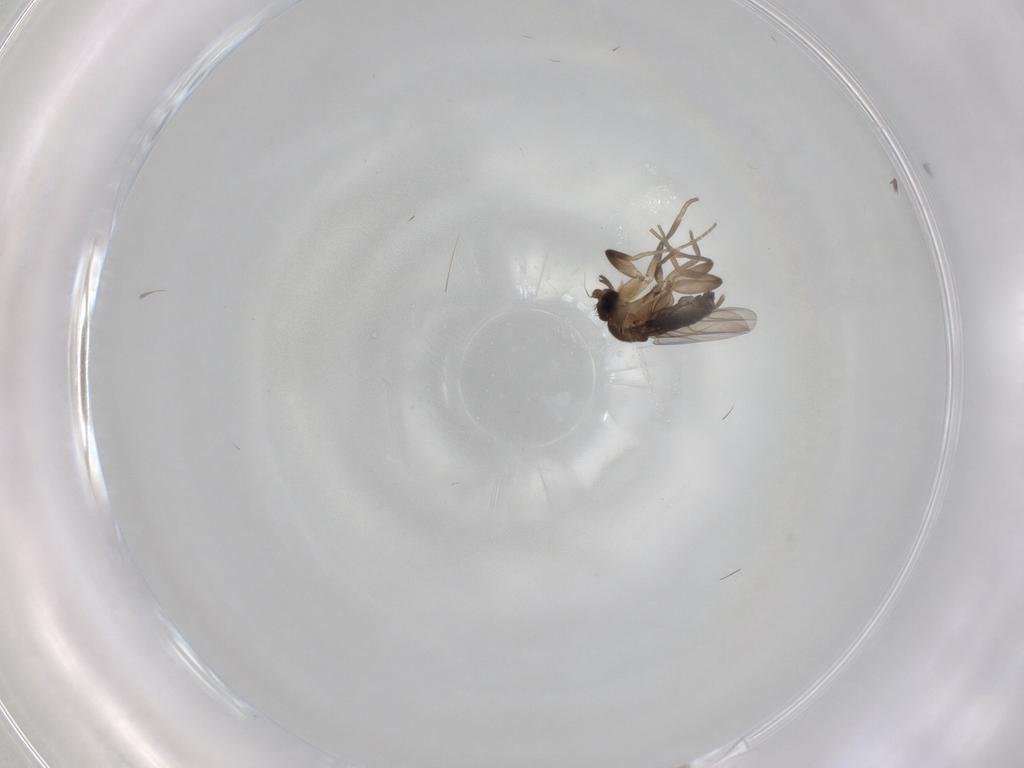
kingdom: Animalia
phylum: Arthropoda
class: Insecta
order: Diptera
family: Phoridae
